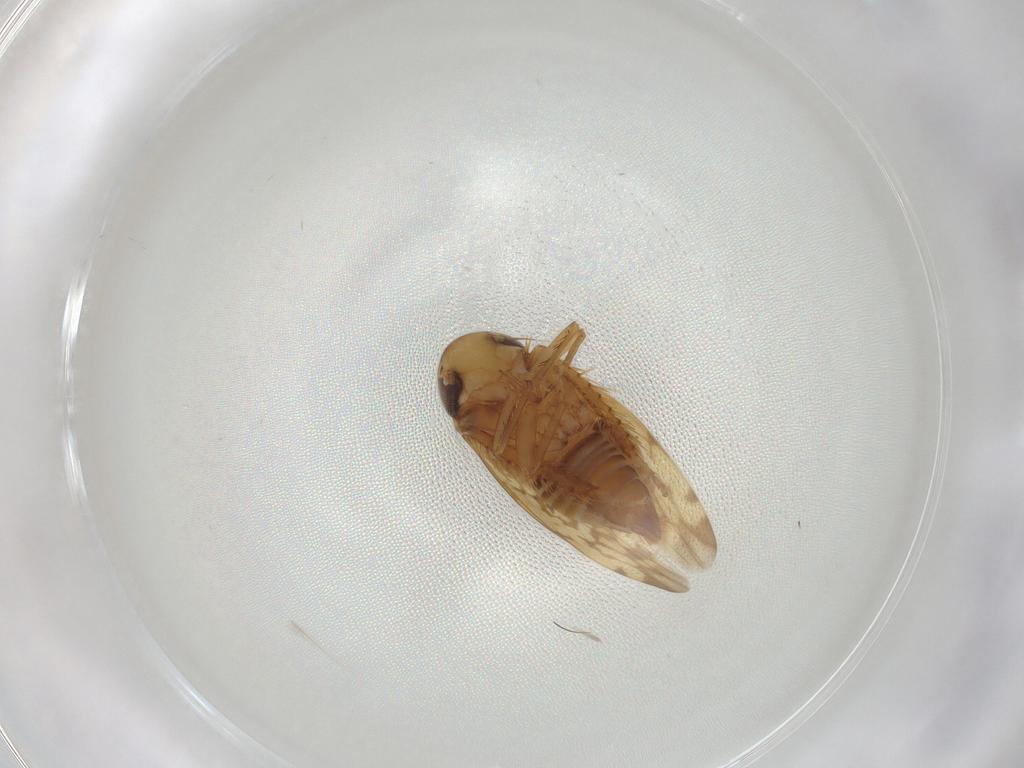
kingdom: Animalia
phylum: Arthropoda
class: Insecta
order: Hemiptera
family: Cicadellidae
